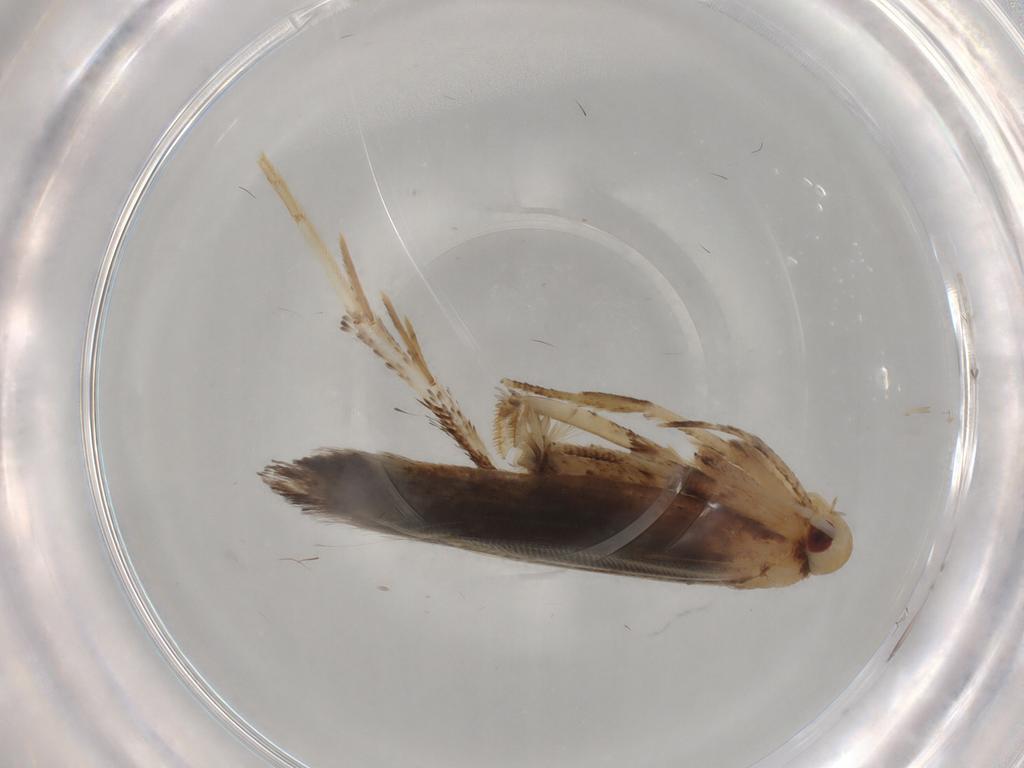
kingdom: Animalia
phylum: Arthropoda
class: Insecta
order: Lepidoptera
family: Cosmopterigidae
